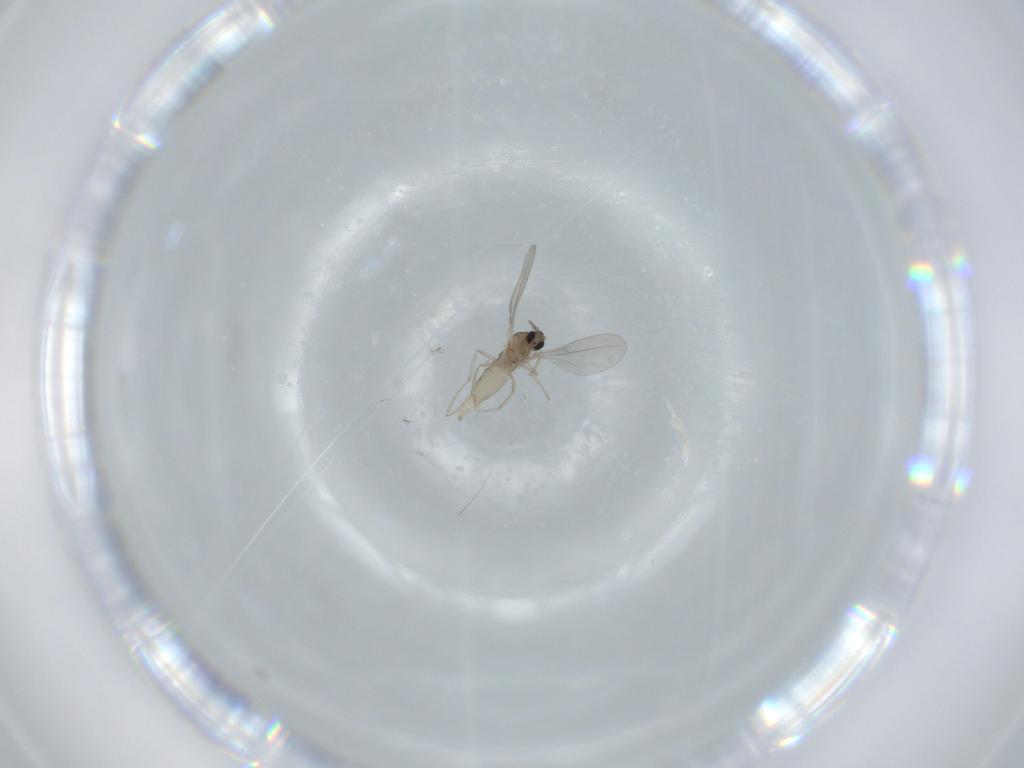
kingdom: Animalia
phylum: Arthropoda
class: Insecta
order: Diptera
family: Cecidomyiidae
